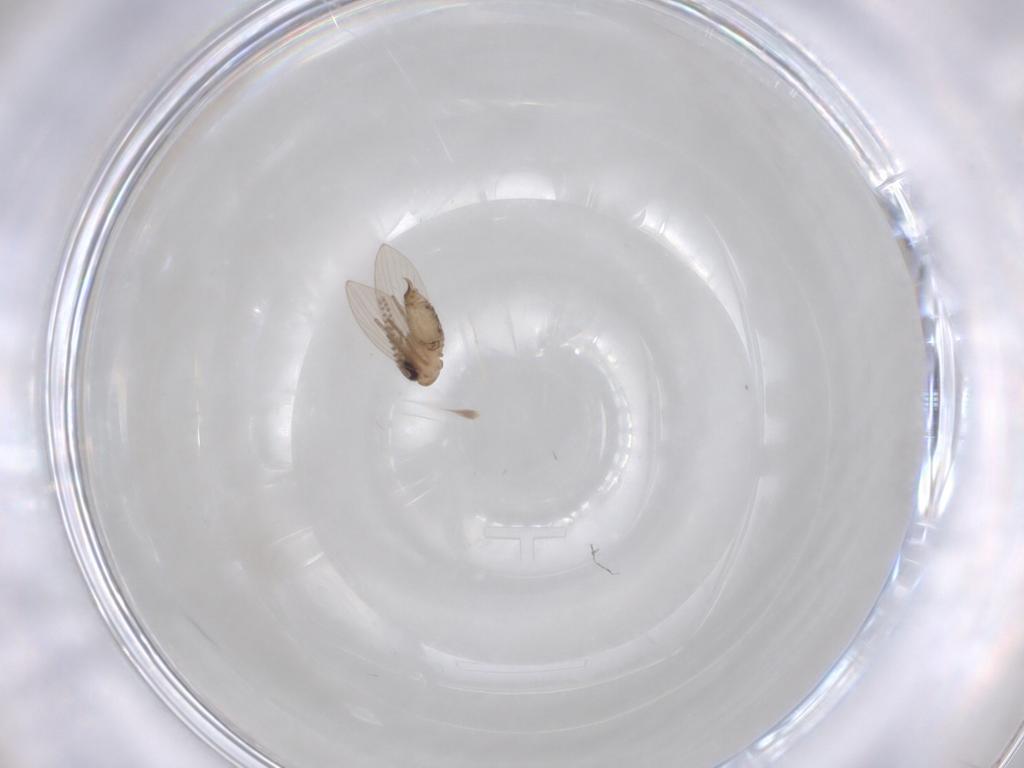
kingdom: Animalia
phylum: Arthropoda
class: Insecta
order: Diptera
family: Psychodidae
